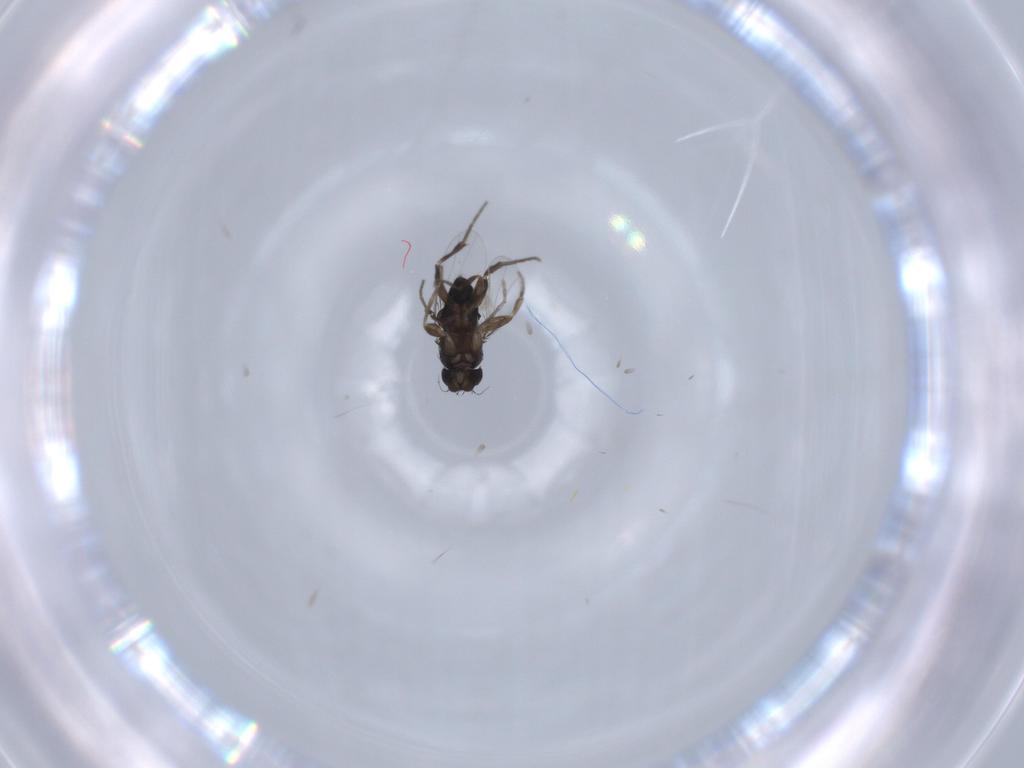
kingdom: Animalia
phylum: Arthropoda
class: Insecta
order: Diptera
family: Phoridae
